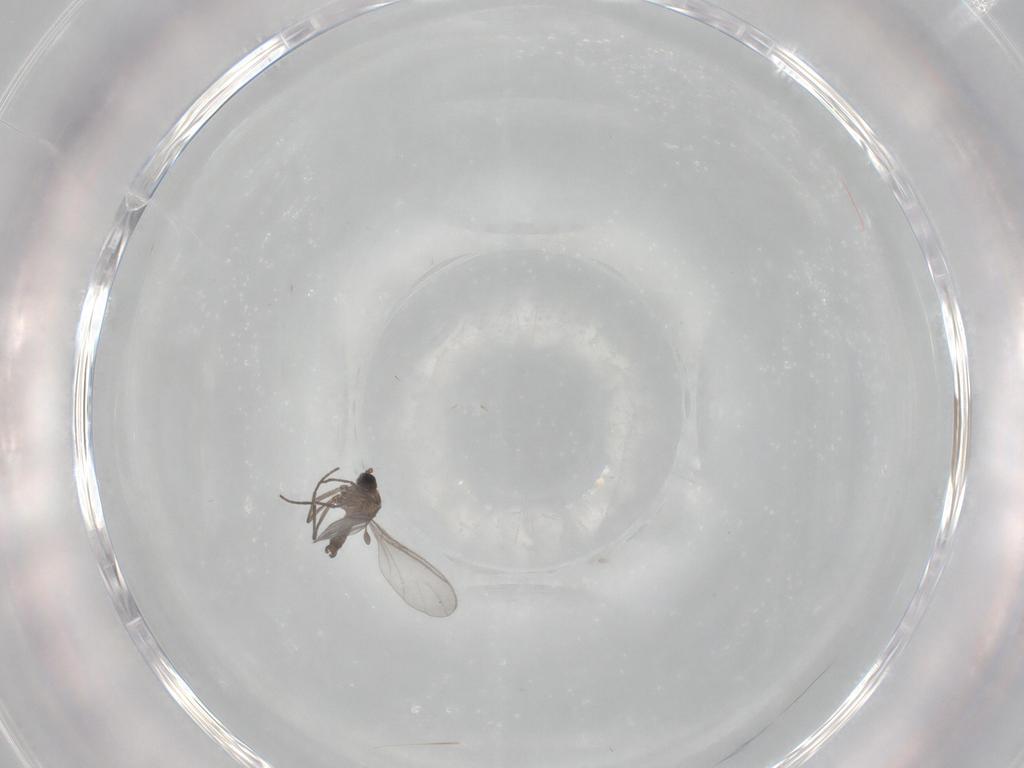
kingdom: Animalia
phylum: Arthropoda
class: Insecta
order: Diptera
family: Sciaridae
